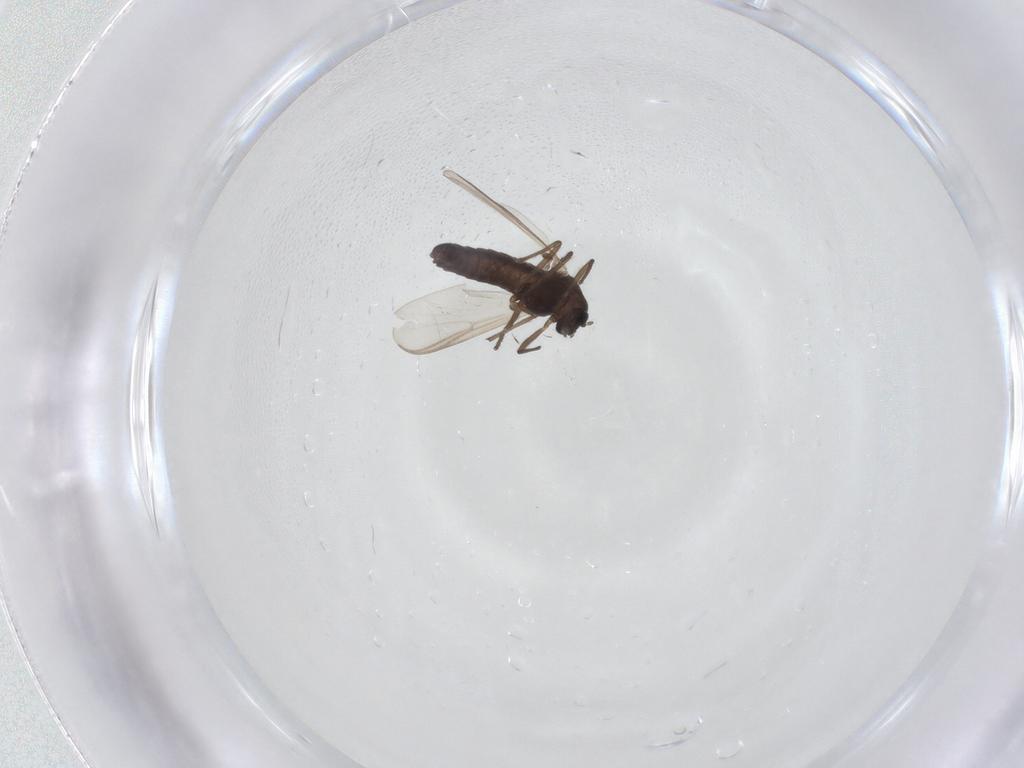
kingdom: Animalia
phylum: Arthropoda
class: Insecta
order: Diptera
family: Chironomidae
